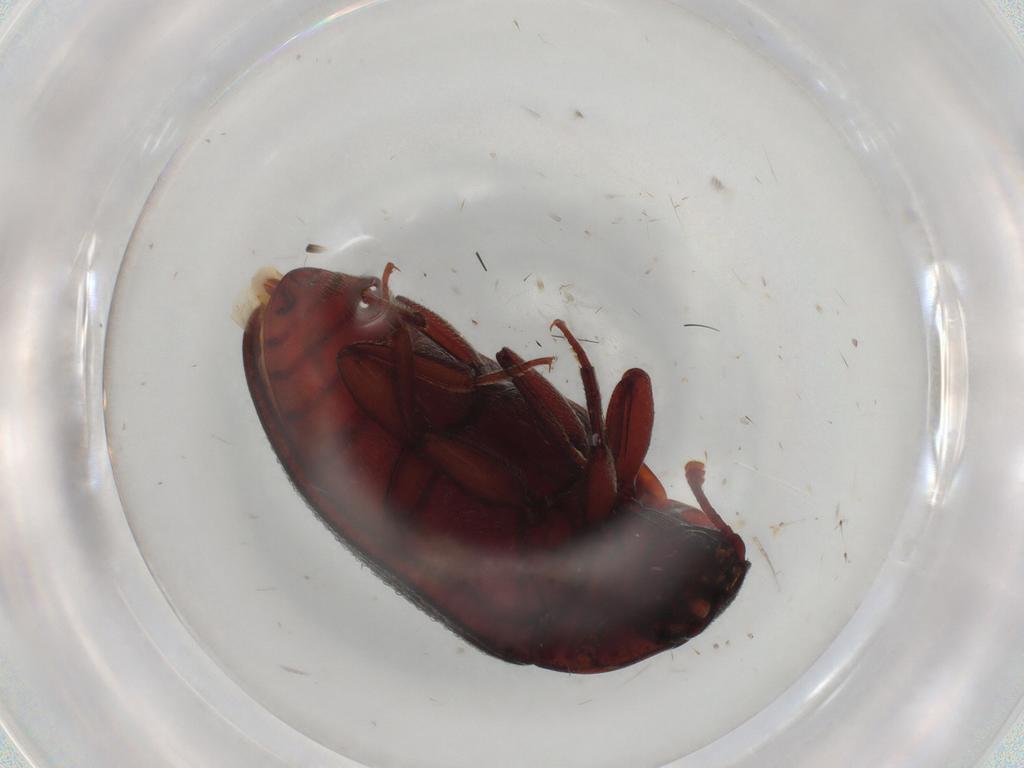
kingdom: Animalia
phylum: Arthropoda
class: Insecta
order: Coleoptera
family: Zopheridae
